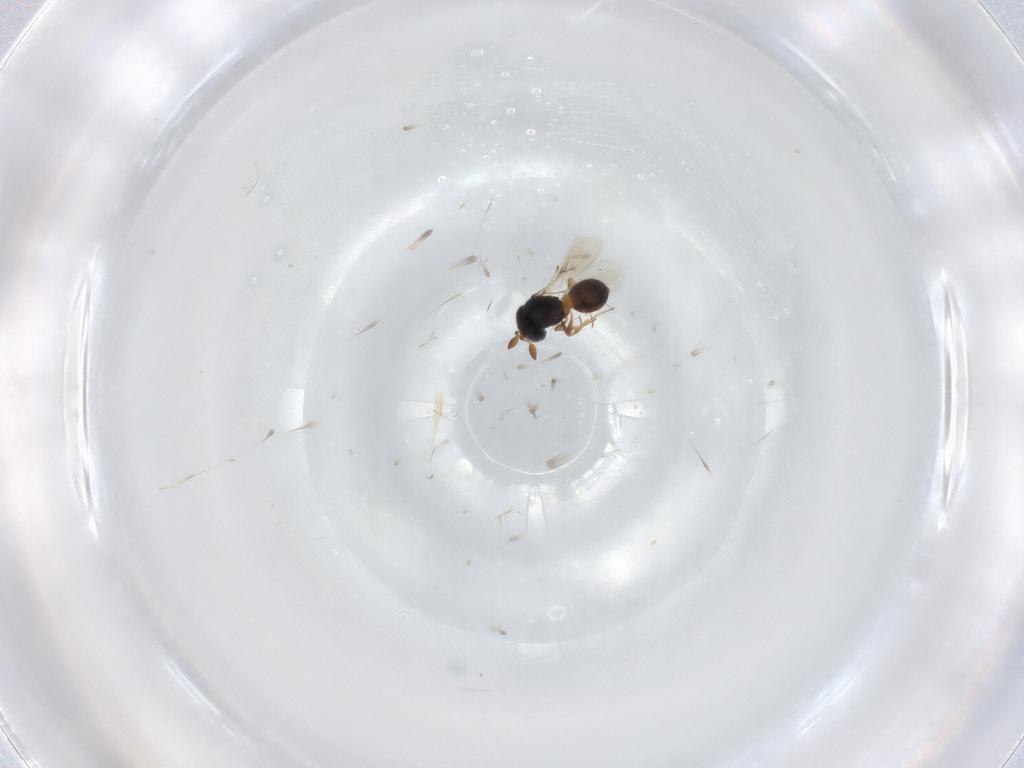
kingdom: Animalia
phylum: Arthropoda
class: Insecta
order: Hymenoptera
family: Scelionidae
